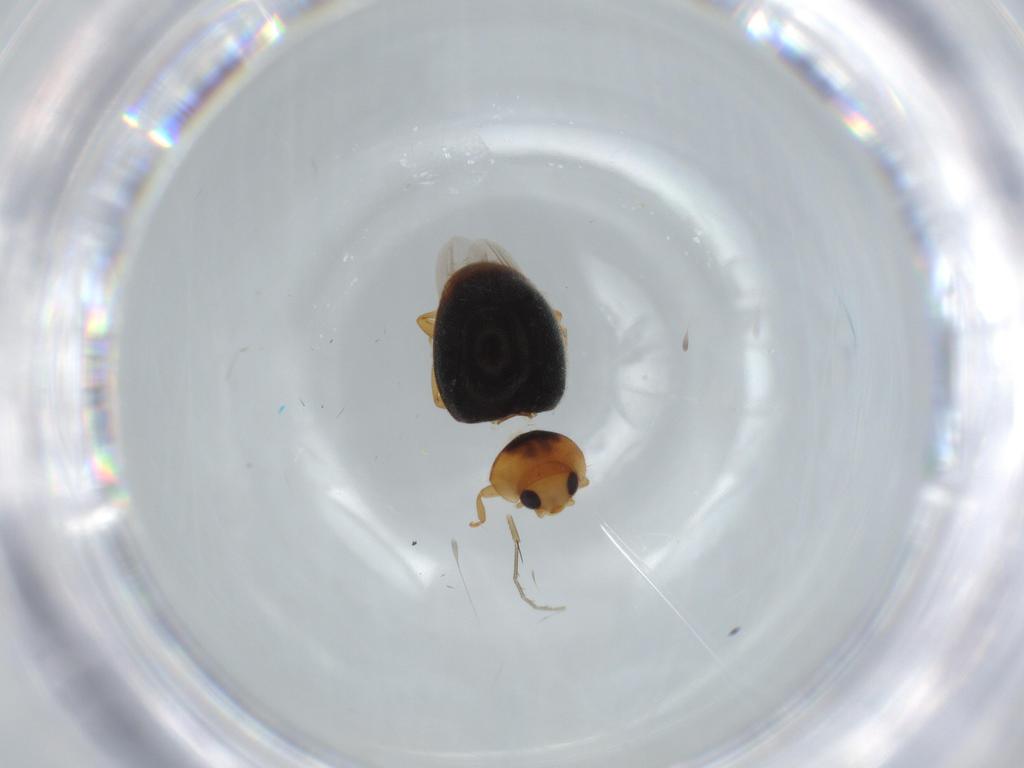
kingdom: Animalia
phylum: Arthropoda
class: Insecta
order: Coleoptera
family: Coccinellidae
